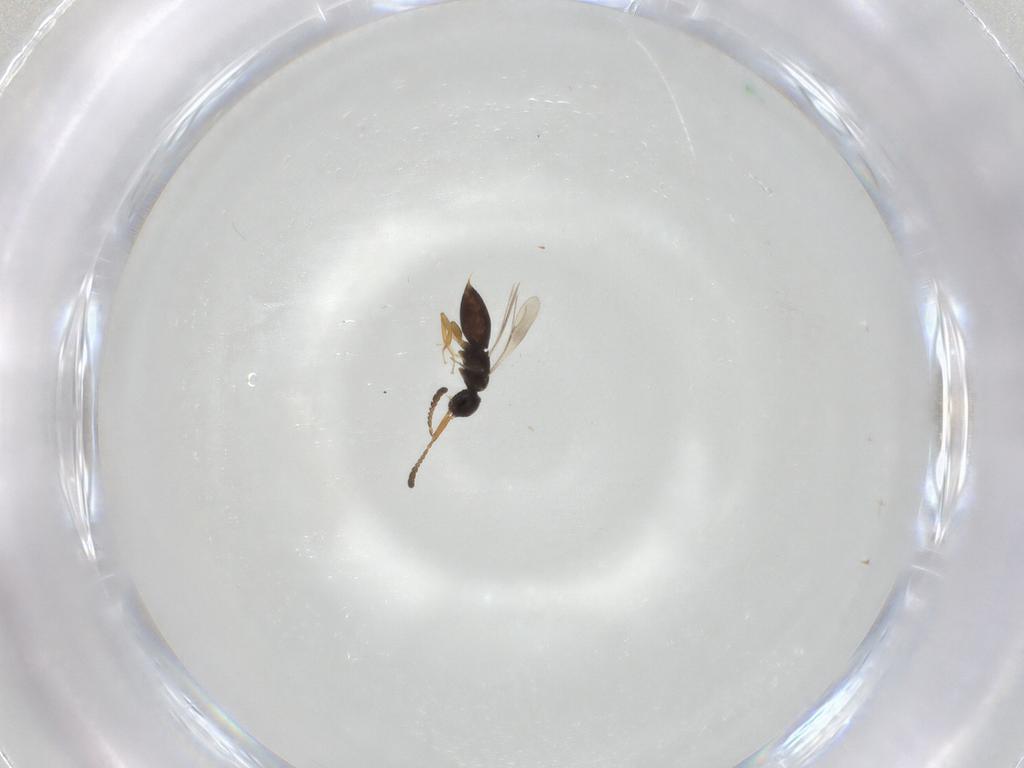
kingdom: Animalia
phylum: Arthropoda
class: Insecta
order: Hymenoptera
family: Ceraphronidae
